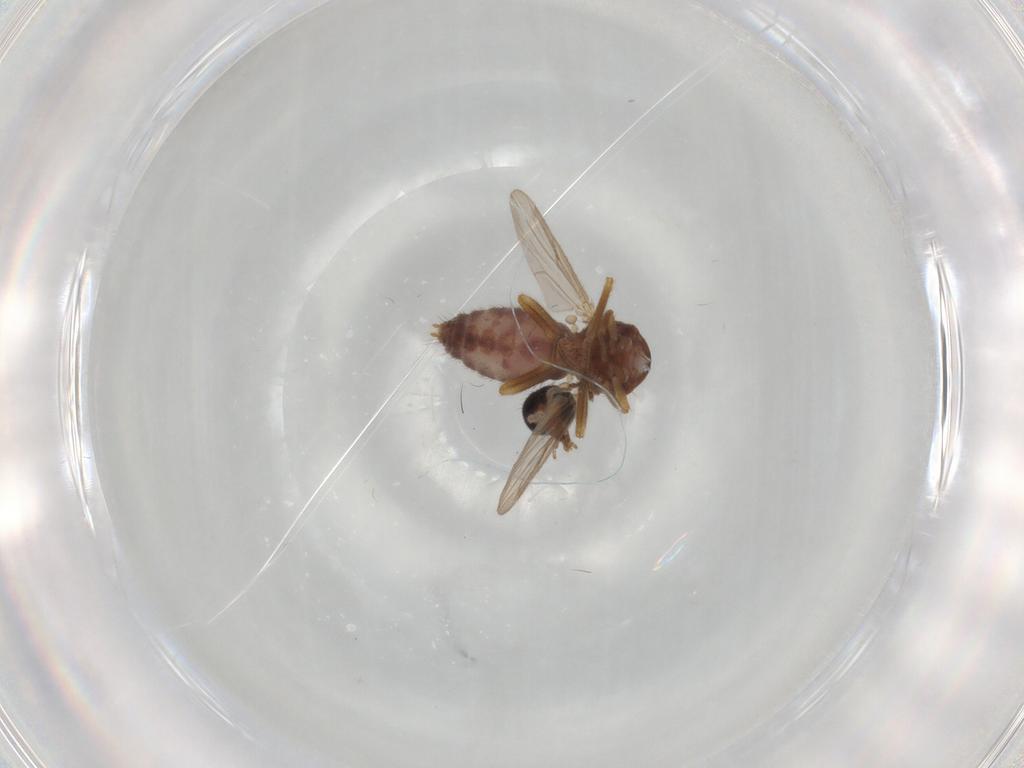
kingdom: Animalia
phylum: Arthropoda
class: Insecta
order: Diptera
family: Ceratopogonidae
